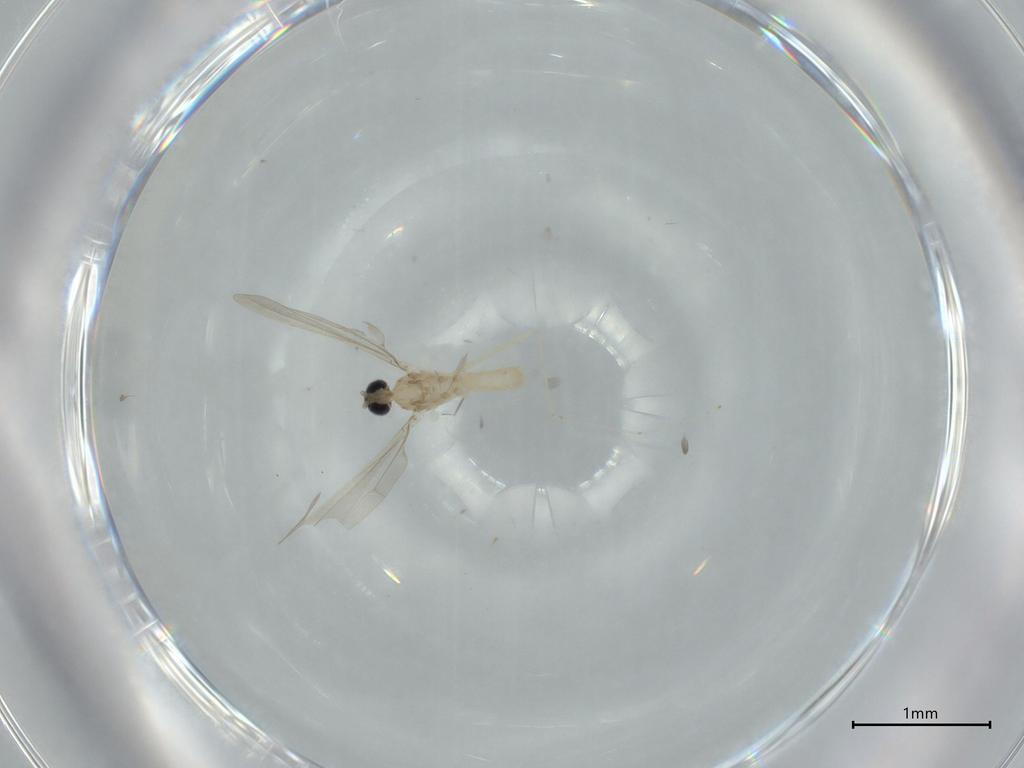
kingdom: Animalia
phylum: Arthropoda
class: Insecta
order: Diptera
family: Cecidomyiidae
